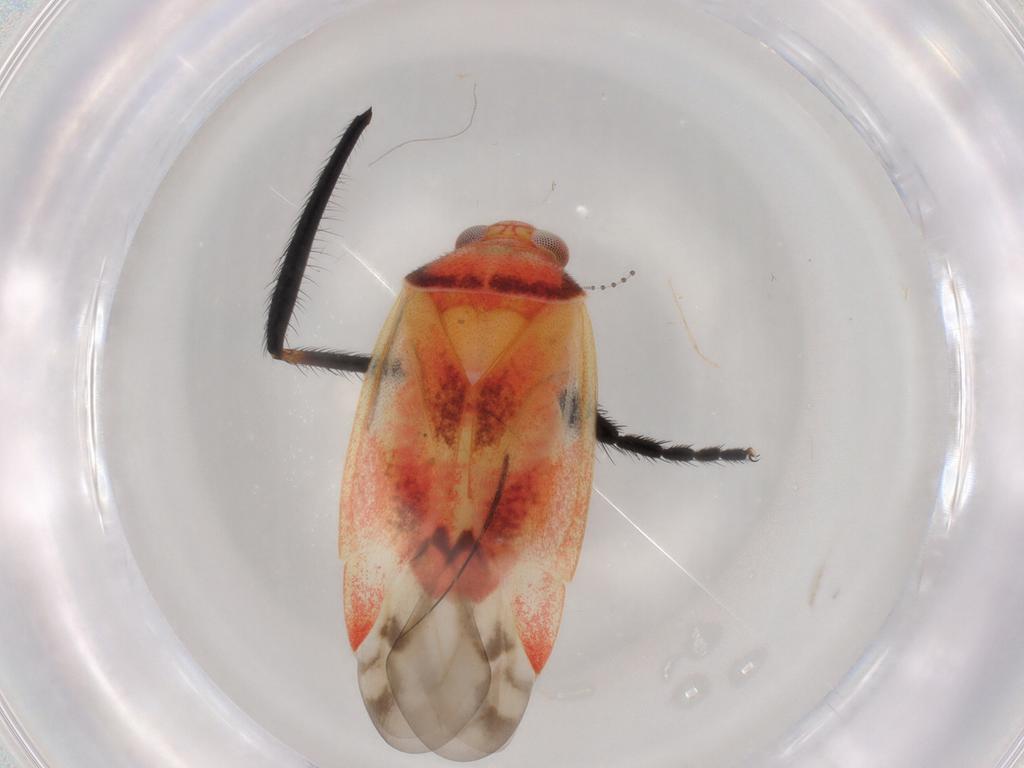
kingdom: Animalia
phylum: Arthropoda
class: Insecta
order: Hemiptera
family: Miridae
